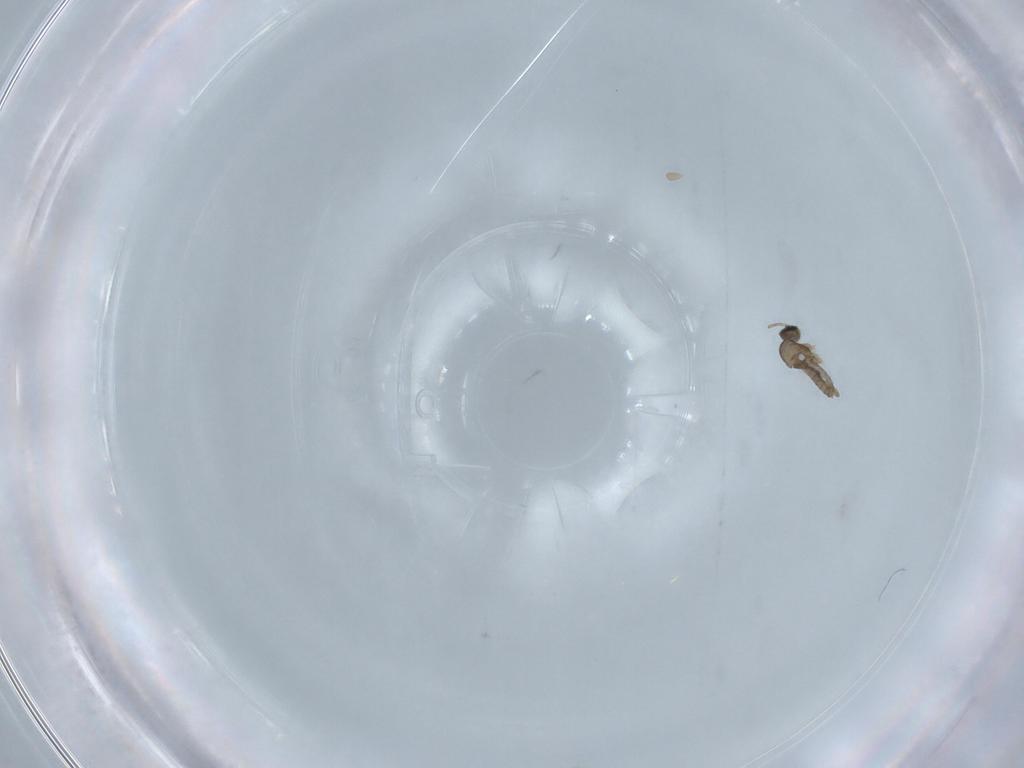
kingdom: Animalia
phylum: Arthropoda
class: Insecta
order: Diptera
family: Cecidomyiidae
